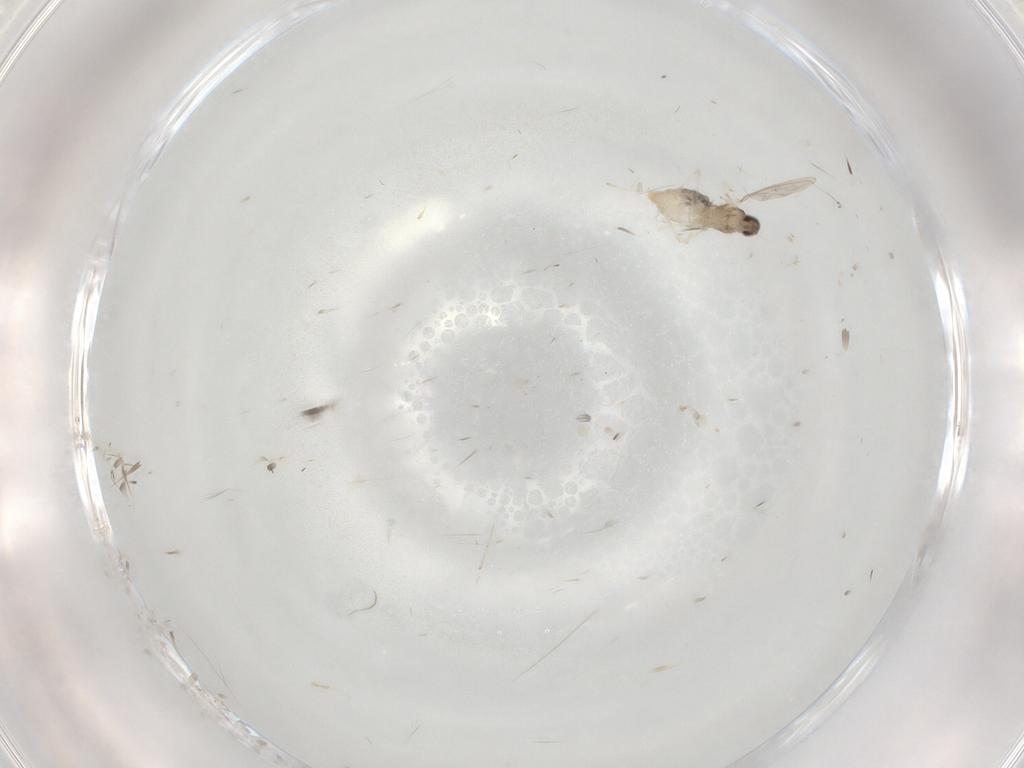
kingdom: Animalia
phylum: Arthropoda
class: Insecta
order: Diptera
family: Cecidomyiidae
